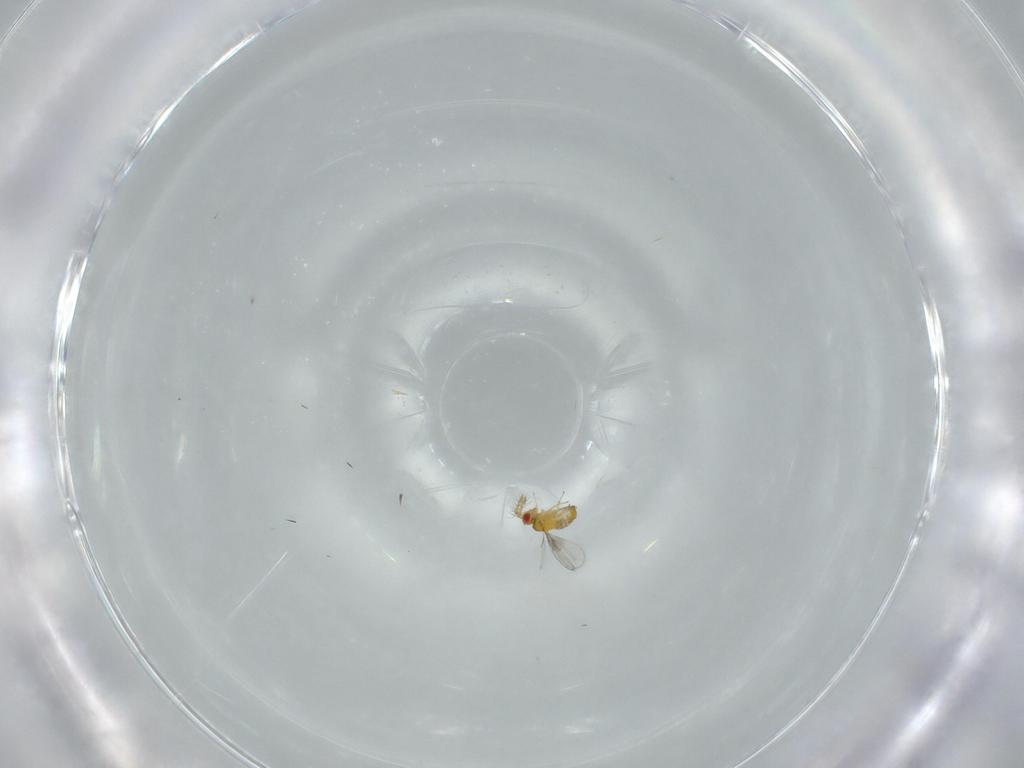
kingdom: Animalia
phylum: Arthropoda
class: Insecta
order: Hymenoptera
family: Trichogrammatidae
